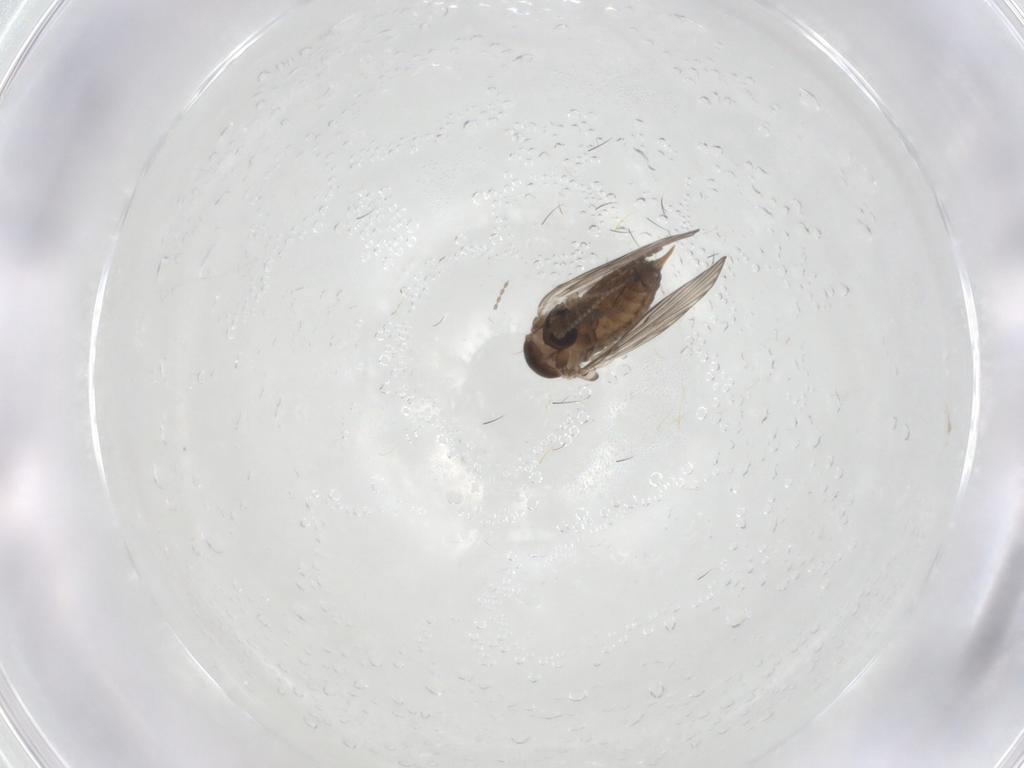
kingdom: Animalia
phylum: Arthropoda
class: Insecta
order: Diptera
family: Psychodidae
